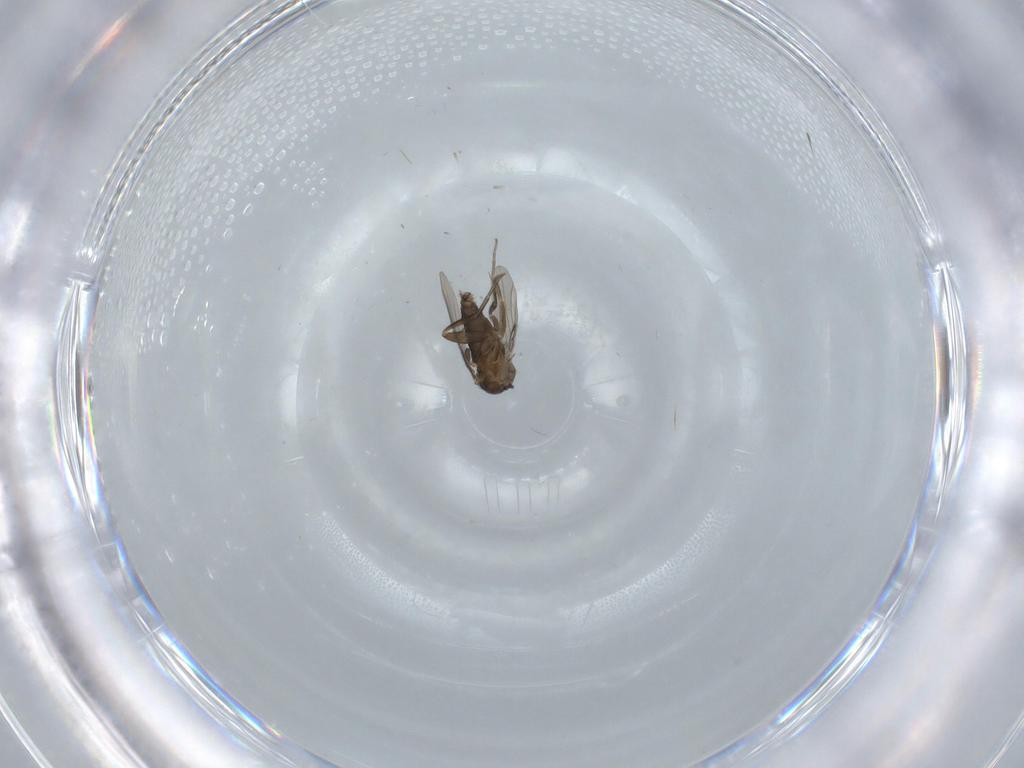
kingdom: Animalia
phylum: Arthropoda
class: Insecta
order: Diptera
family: Phoridae
